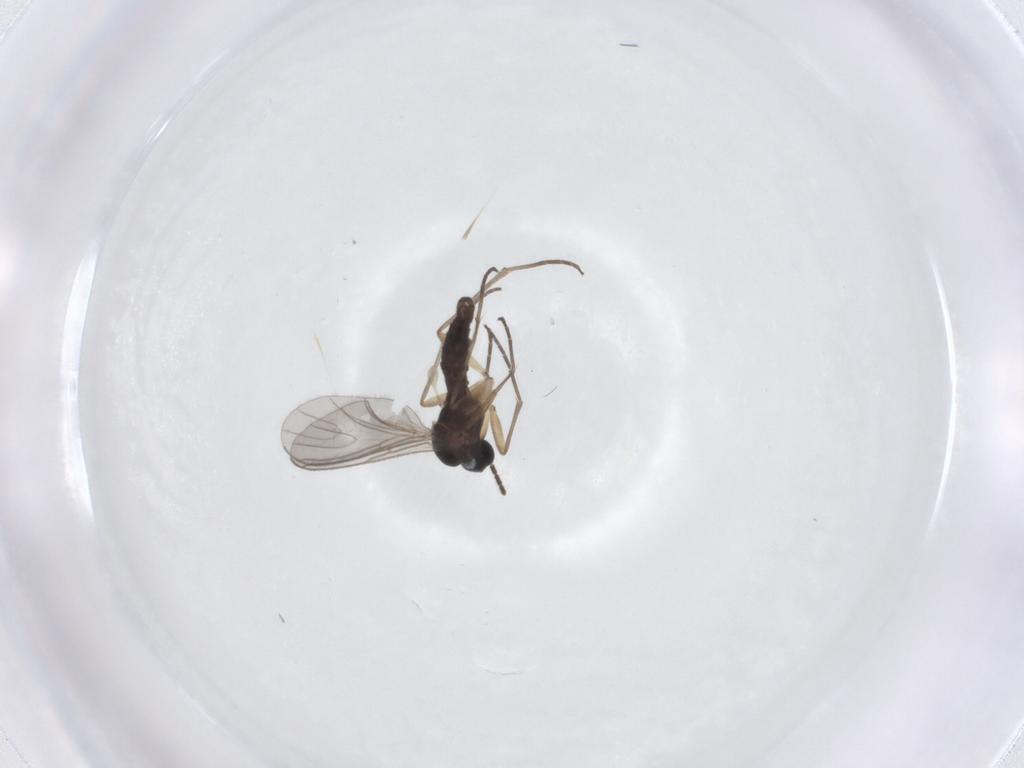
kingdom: Animalia
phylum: Arthropoda
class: Insecta
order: Diptera
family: Sciaridae
